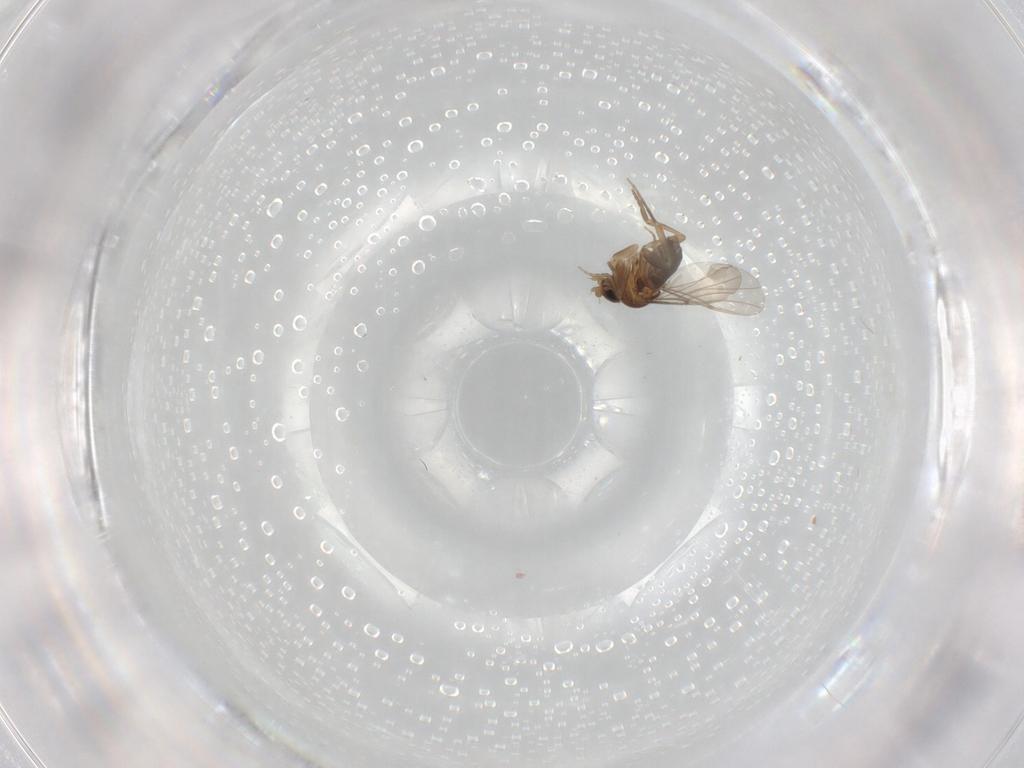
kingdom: Animalia
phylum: Arthropoda
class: Insecta
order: Diptera
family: Phoridae
